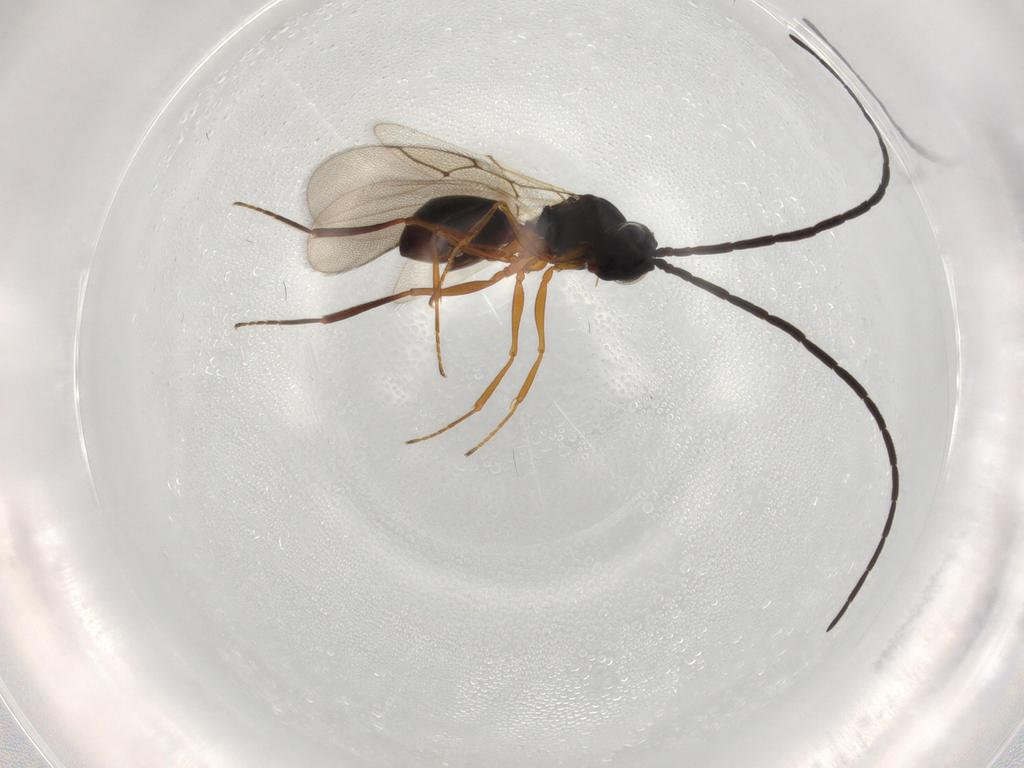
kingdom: Animalia
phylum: Arthropoda
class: Insecta
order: Hymenoptera
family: Figitidae
